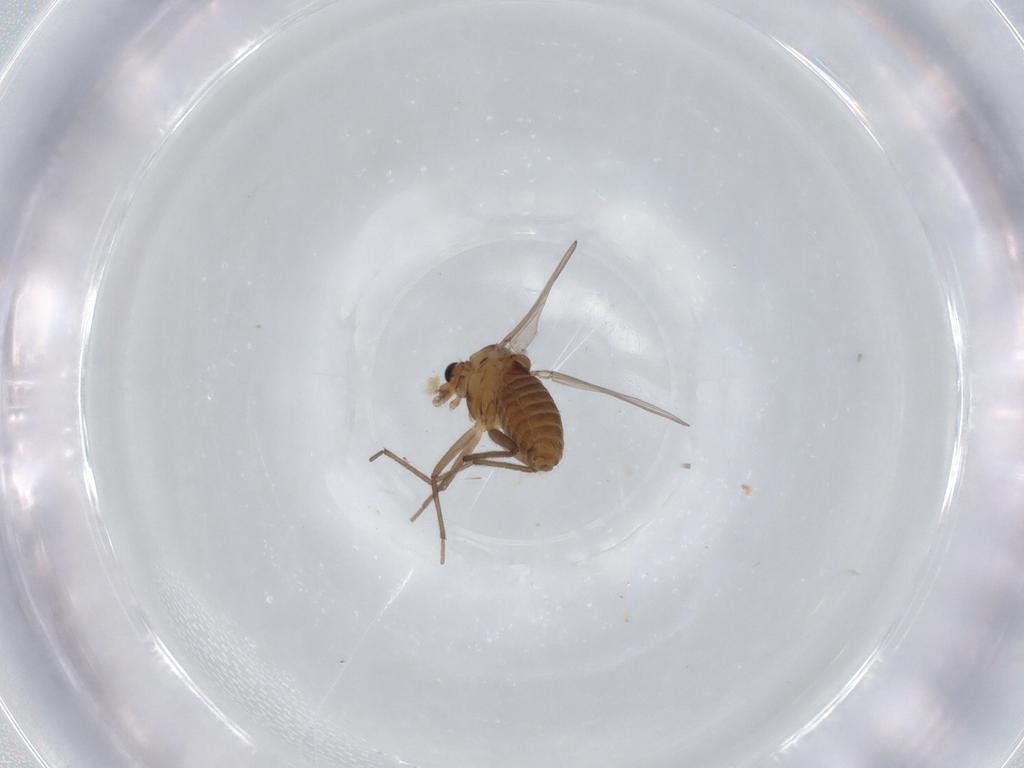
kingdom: Animalia
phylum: Arthropoda
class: Insecta
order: Diptera
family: Chironomidae
